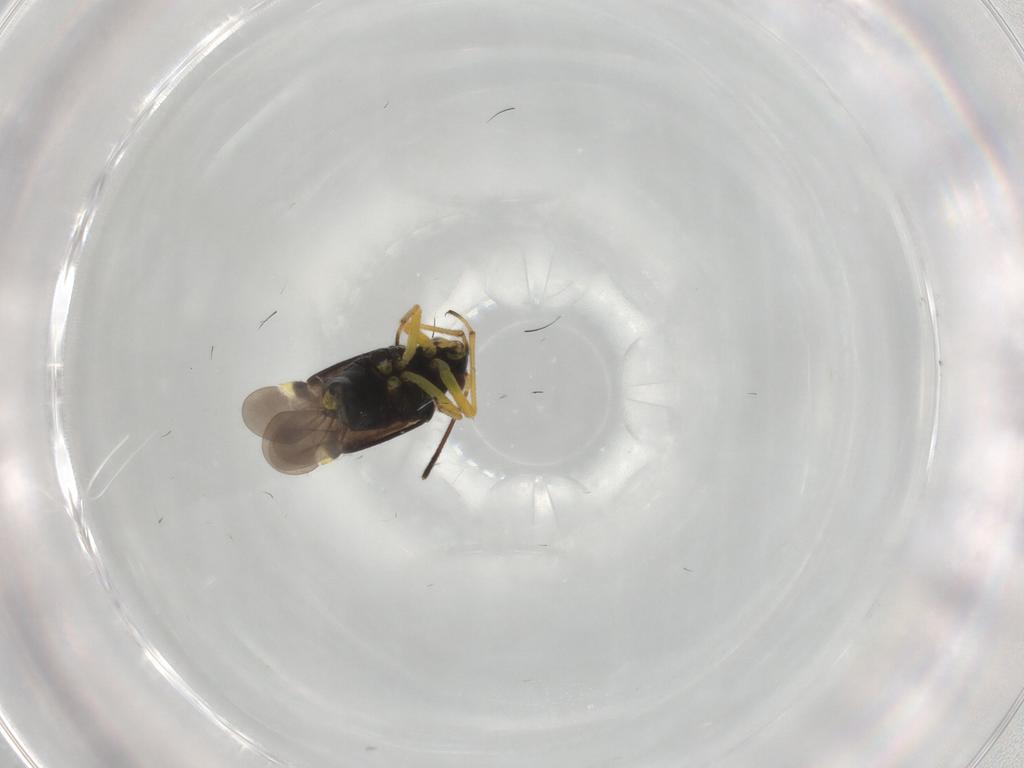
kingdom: Animalia
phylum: Arthropoda
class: Insecta
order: Hemiptera
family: Miridae
